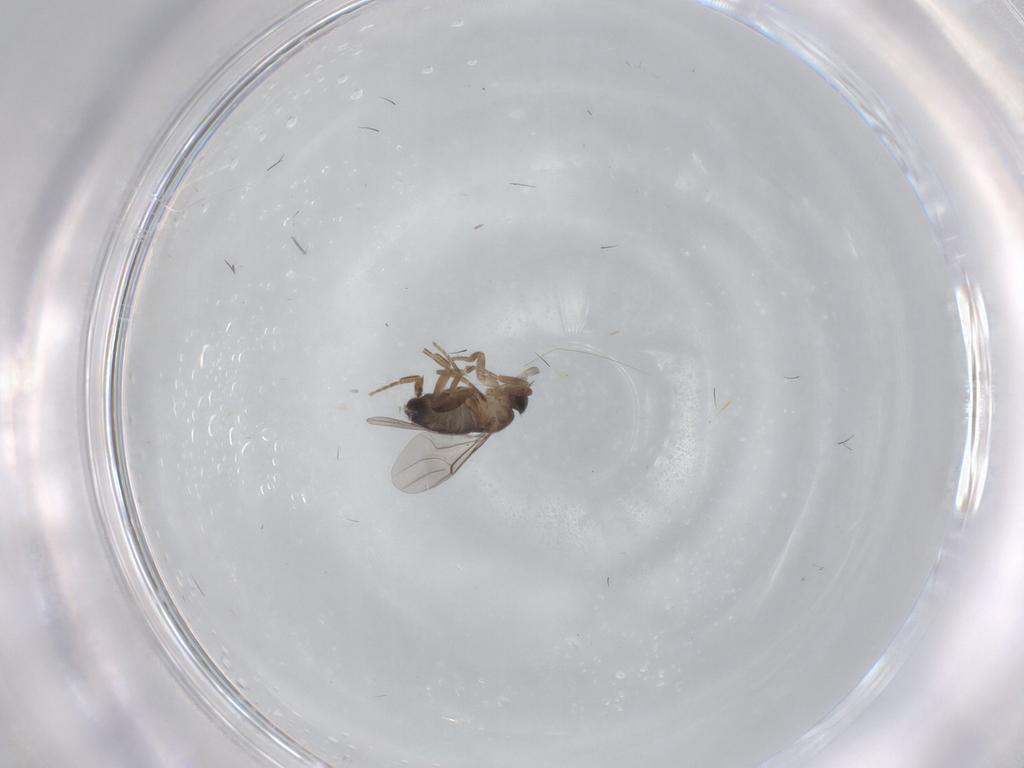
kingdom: Animalia
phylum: Arthropoda
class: Insecta
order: Diptera
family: Phoridae
